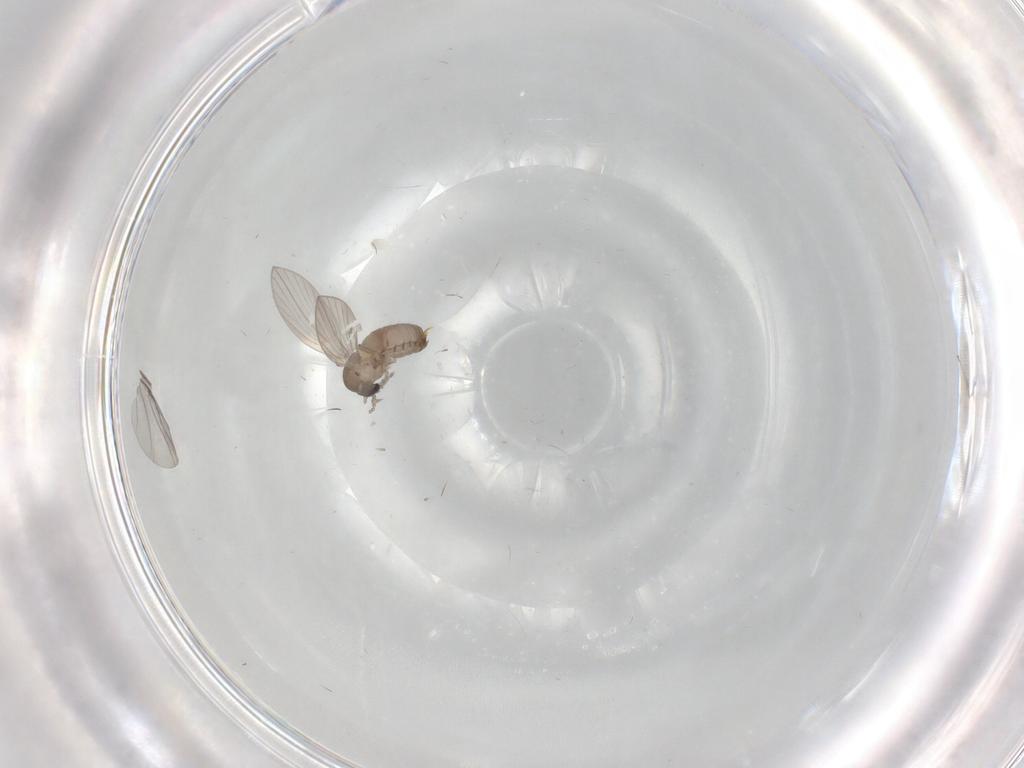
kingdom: Animalia
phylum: Arthropoda
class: Insecta
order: Diptera
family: Psychodidae
